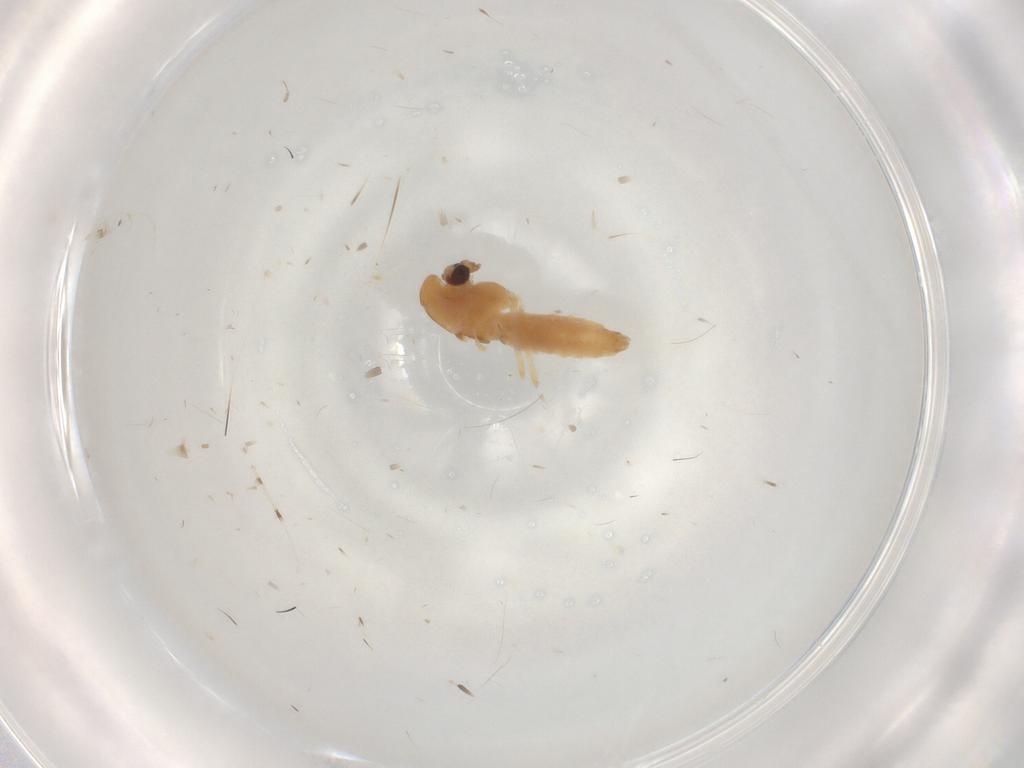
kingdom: Animalia
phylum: Arthropoda
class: Insecta
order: Diptera
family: Chironomidae
